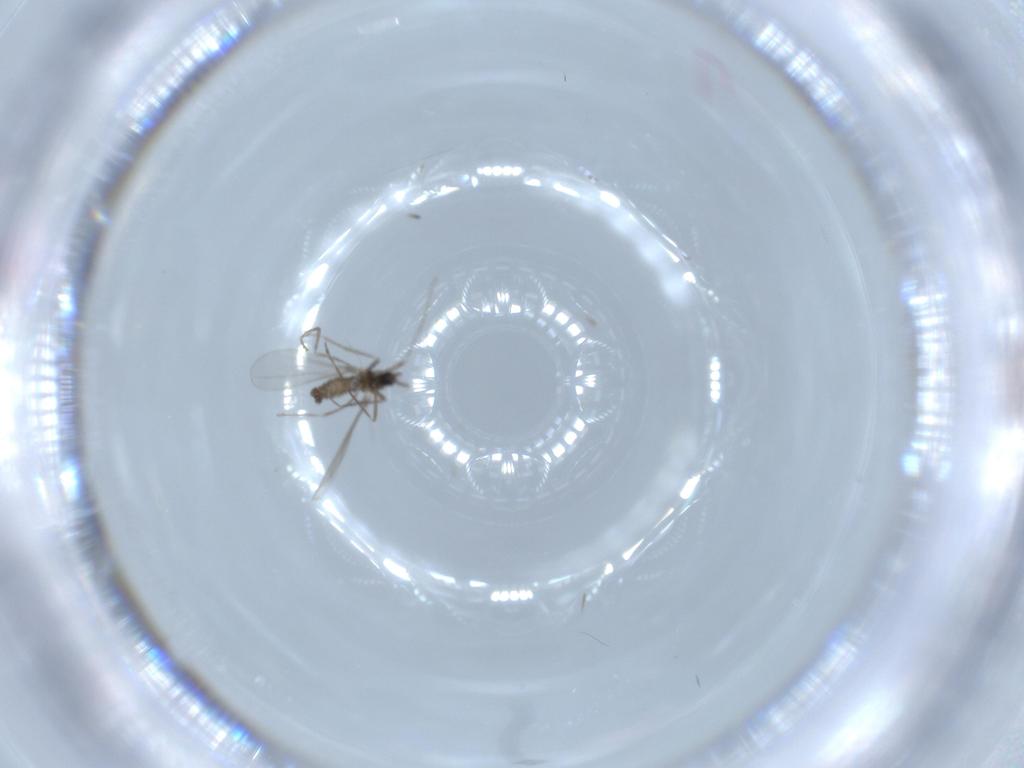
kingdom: Animalia
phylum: Arthropoda
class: Insecta
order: Diptera
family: Cecidomyiidae
